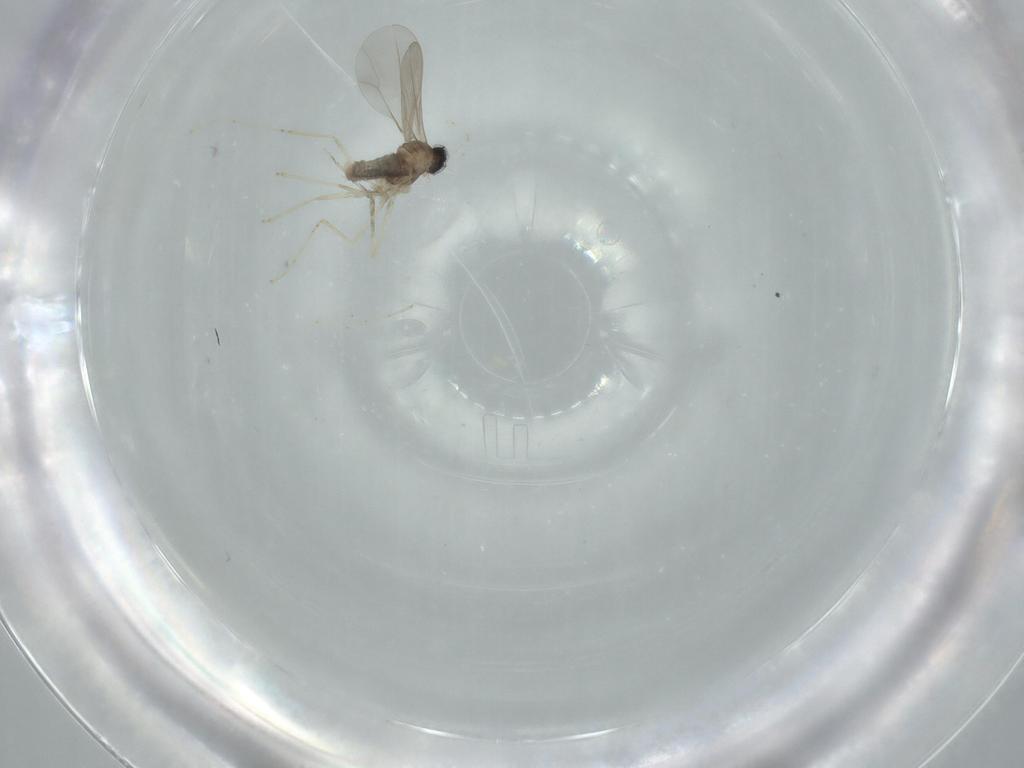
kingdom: Animalia
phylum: Arthropoda
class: Insecta
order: Diptera
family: Cecidomyiidae
